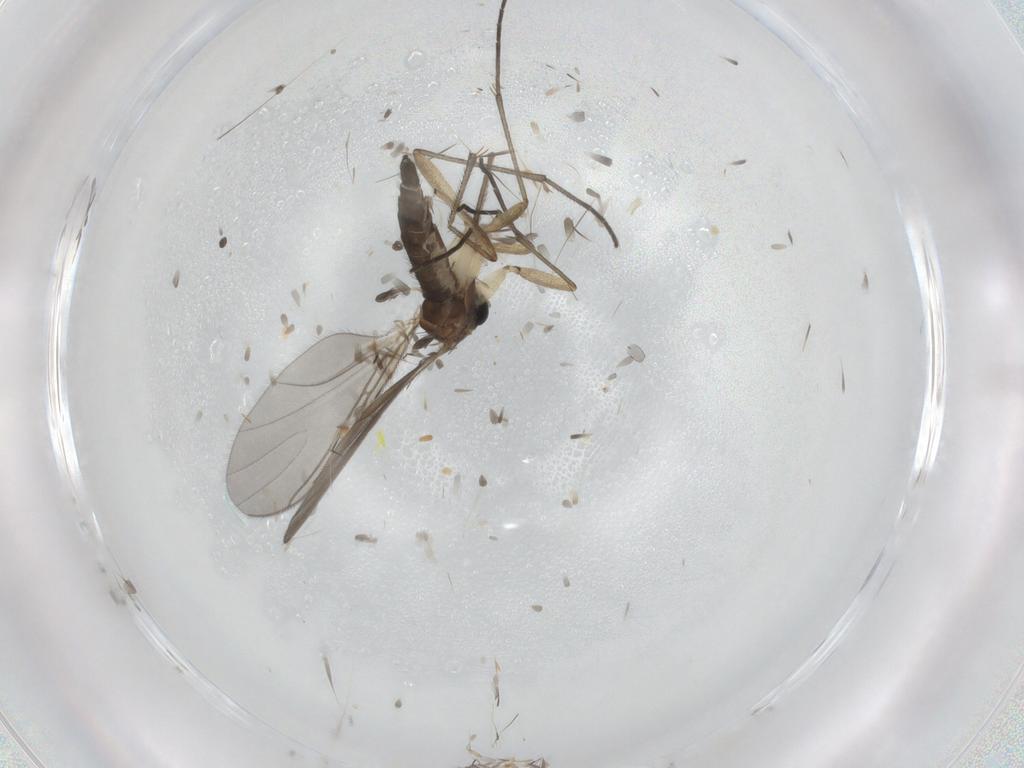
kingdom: Animalia
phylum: Arthropoda
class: Insecta
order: Diptera
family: Sciaridae
